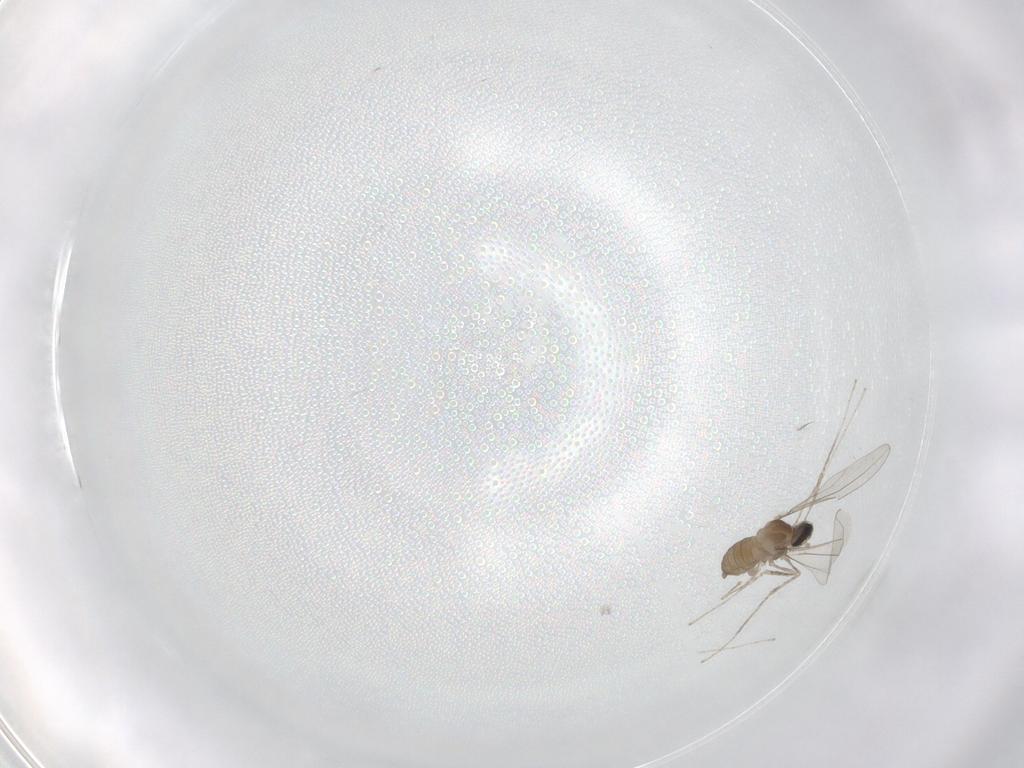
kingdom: Animalia
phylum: Arthropoda
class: Insecta
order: Diptera
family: Cecidomyiidae
